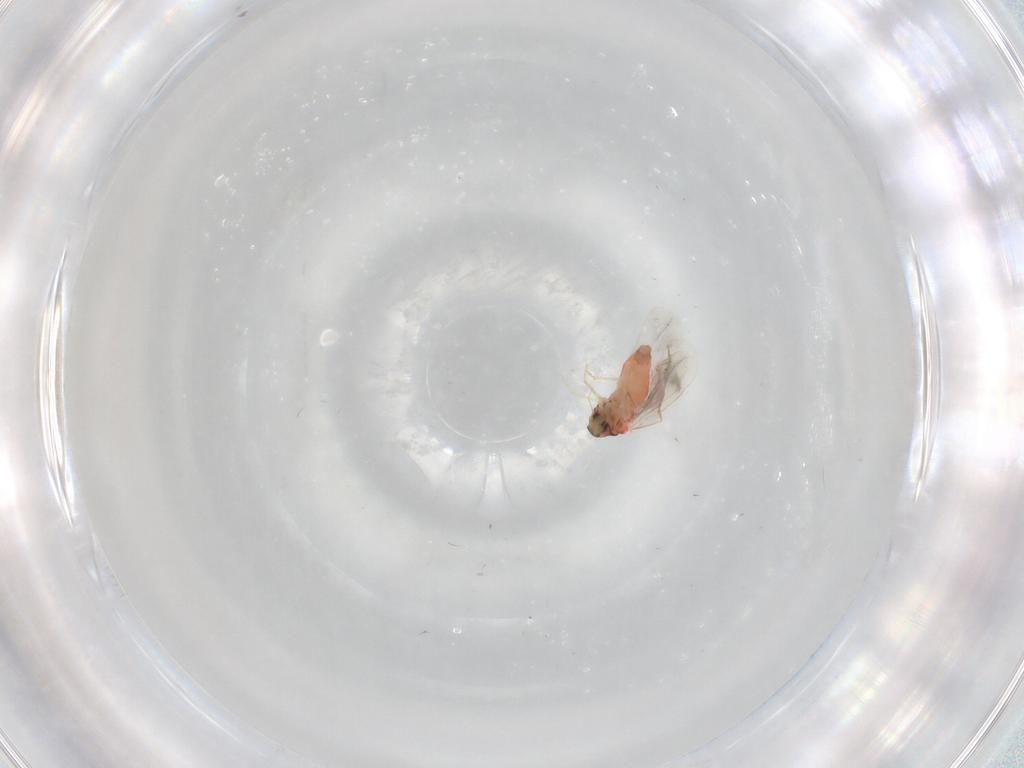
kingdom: Animalia
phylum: Arthropoda
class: Insecta
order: Hemiptera
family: Aleyrodidae
